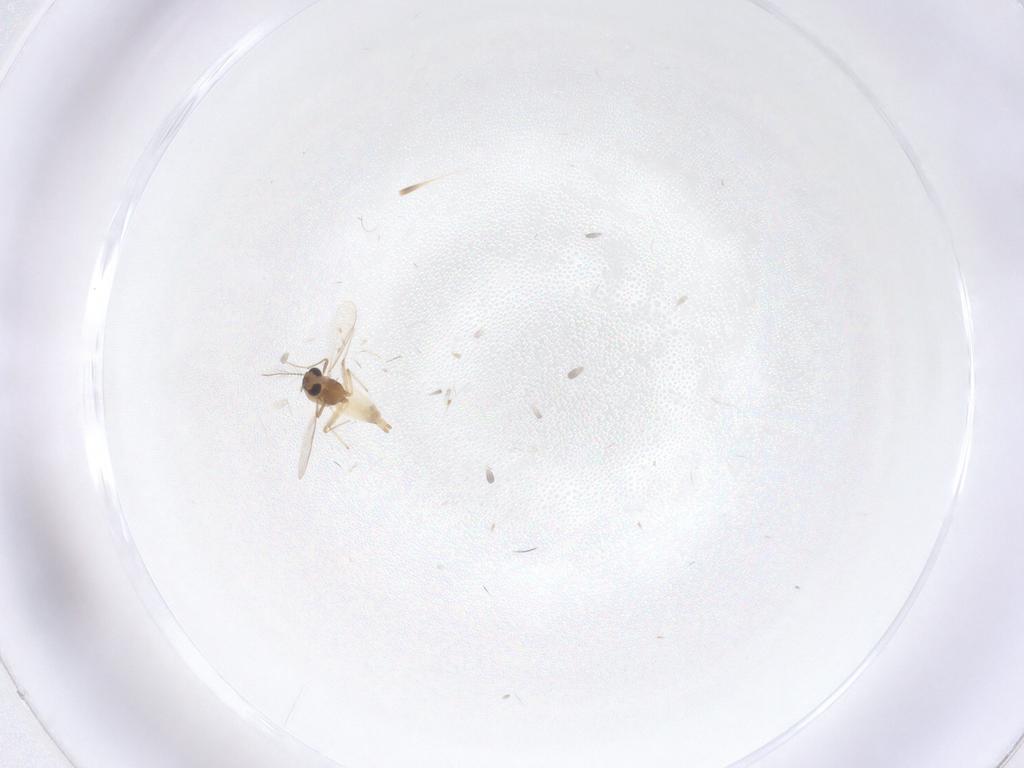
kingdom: Animalia
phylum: Arthropoda
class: Insecta
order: Diptera
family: Chironomidae
